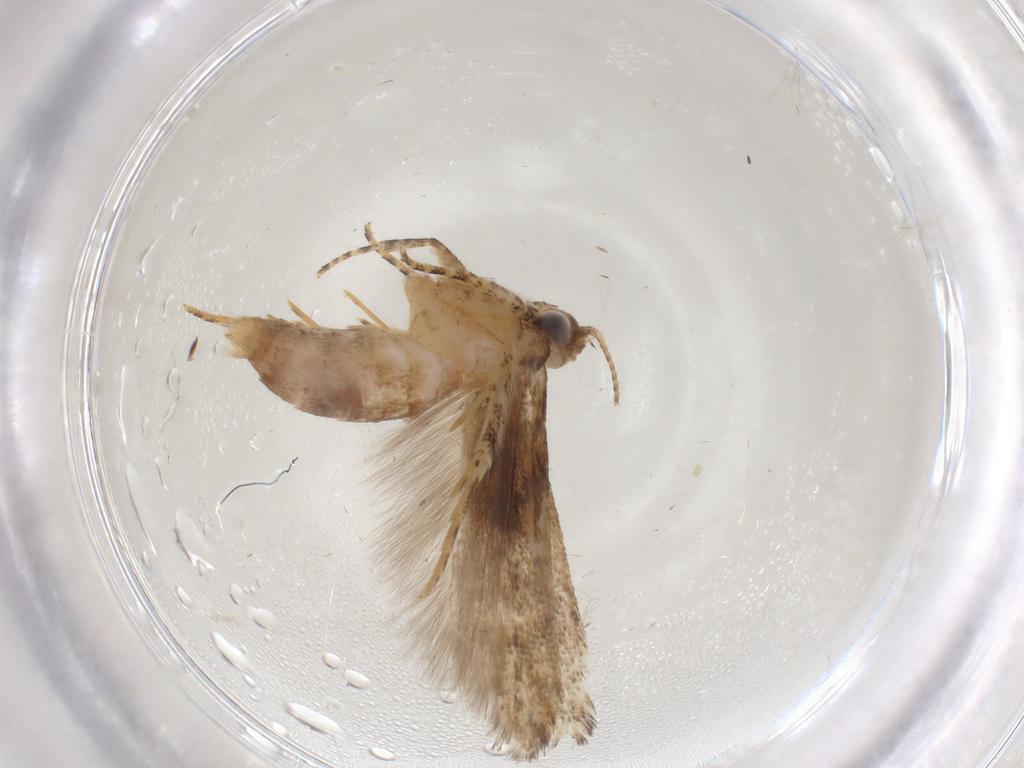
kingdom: Animalia
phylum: Arthropoda
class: Insecta
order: Lepidoptera
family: Gelechiidae
